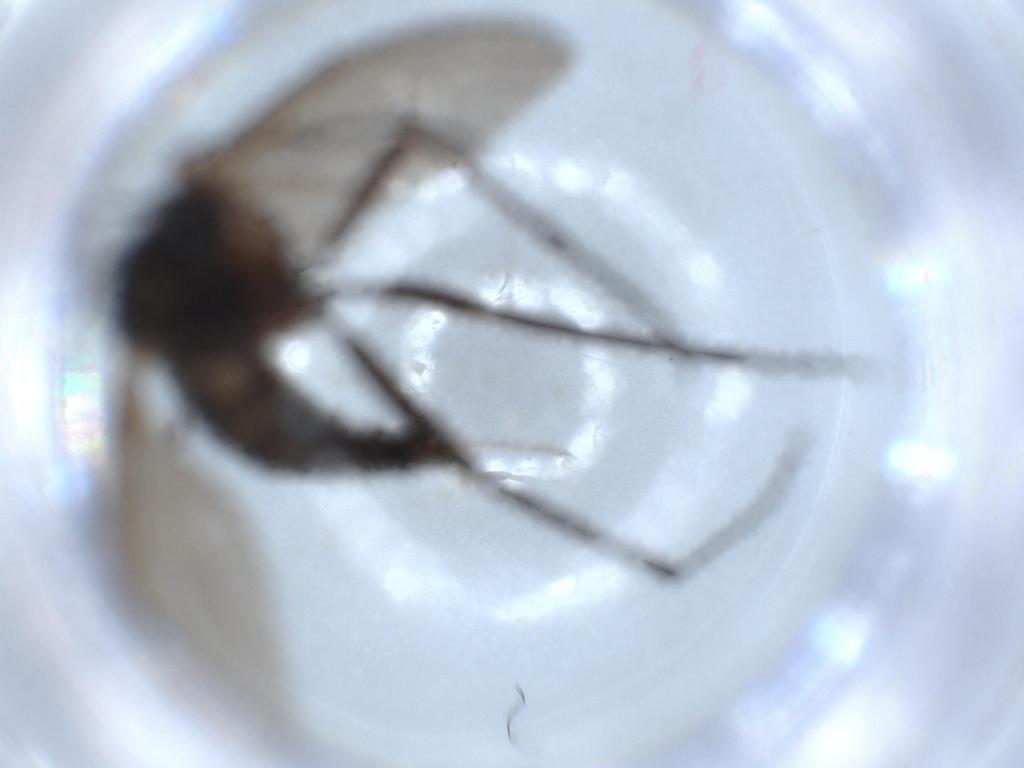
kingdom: Animalia
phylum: Arthropoda
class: Insecta
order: Diptera
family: Sciaridae
